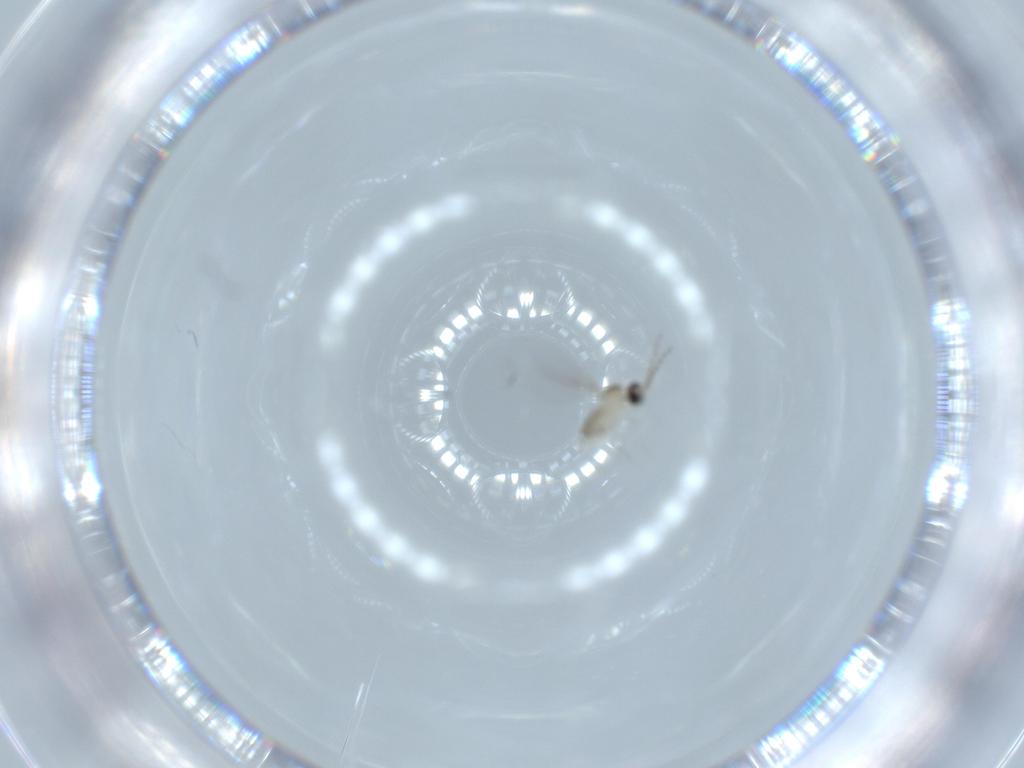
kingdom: Animalia
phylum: Arthropoda
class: Insecta
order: Diptera
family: Cecidomyiidae
